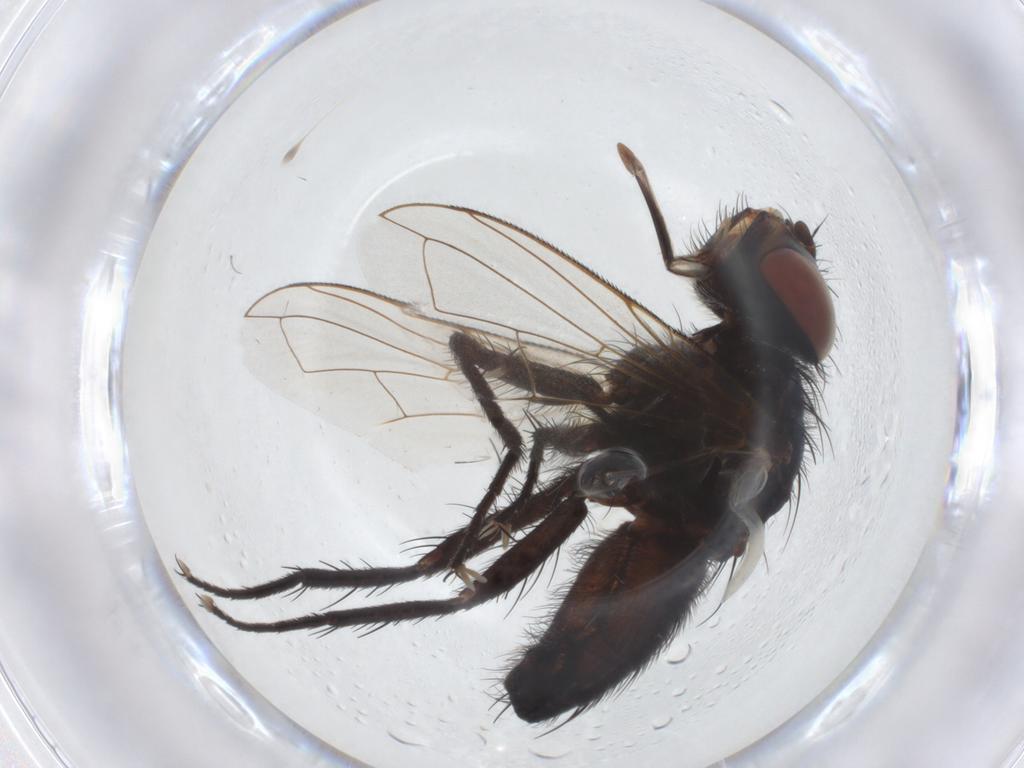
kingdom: Animalia
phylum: Arthropoda
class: Insecta
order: Diptera
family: Tachinidae
